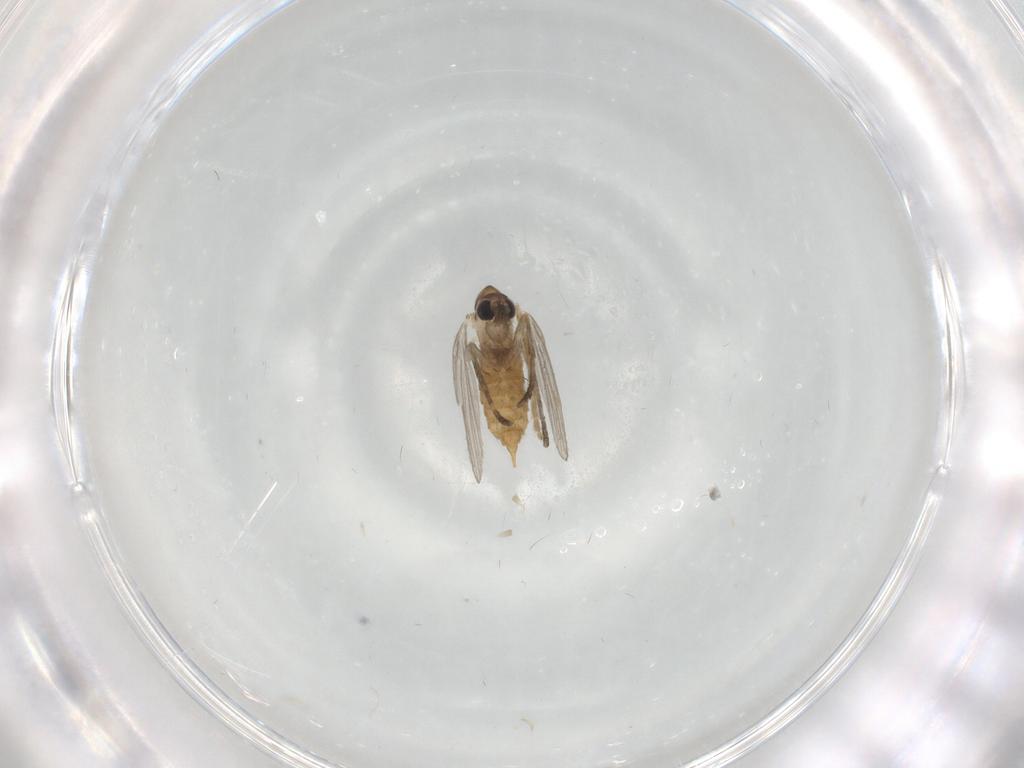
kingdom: Animalia
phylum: Arthropoda
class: Insecta
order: Diptera
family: Psychodidae
